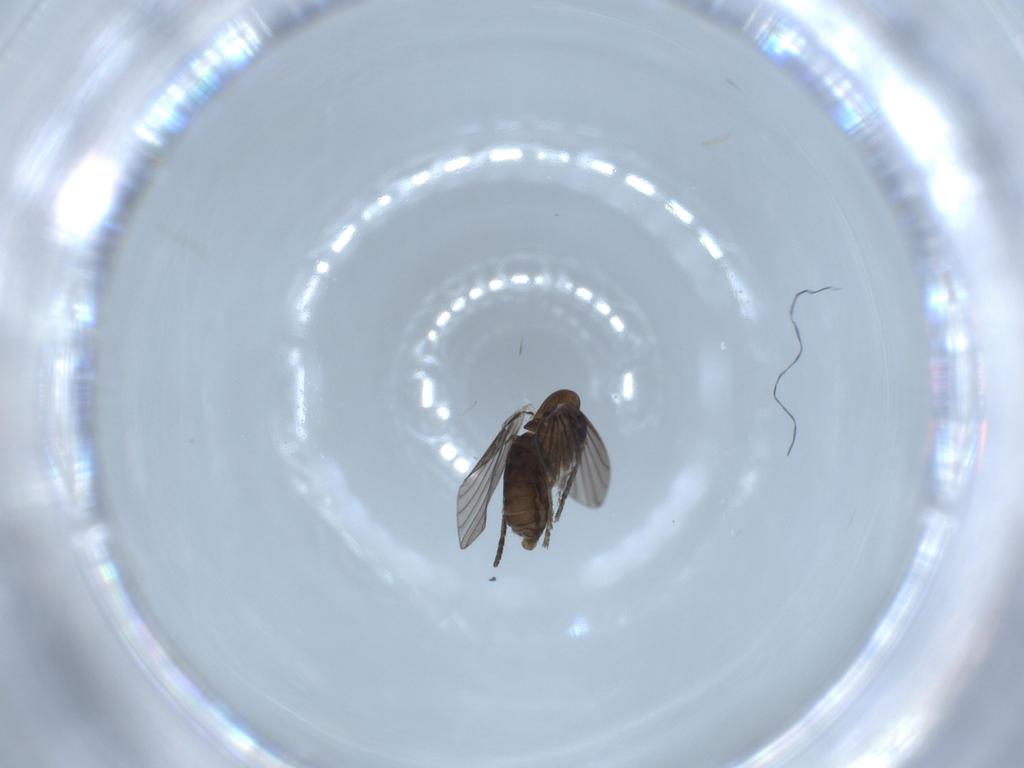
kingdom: Animalia
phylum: Arthropoda
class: Insecta
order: Diptera
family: Psychodidae
